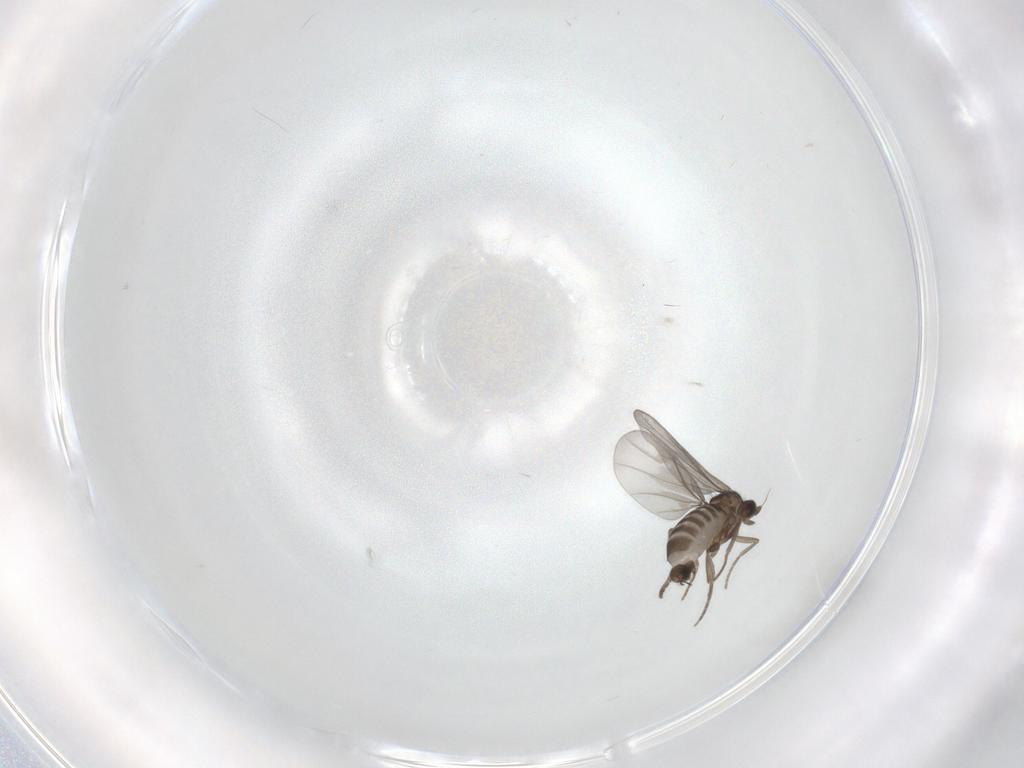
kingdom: Animalia
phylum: Arthropoda
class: Insecta
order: Diptera
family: Drosophilidae
